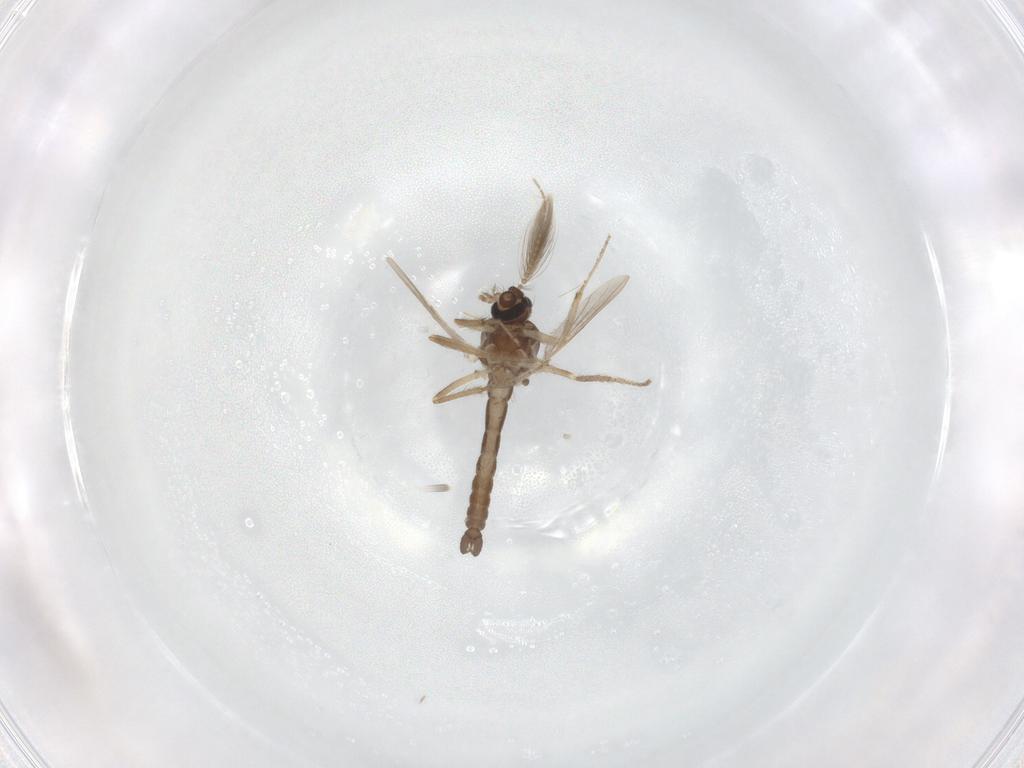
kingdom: Animalia
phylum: Arthropoda
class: Insecta
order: Diptera
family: Ceratopogonidae
